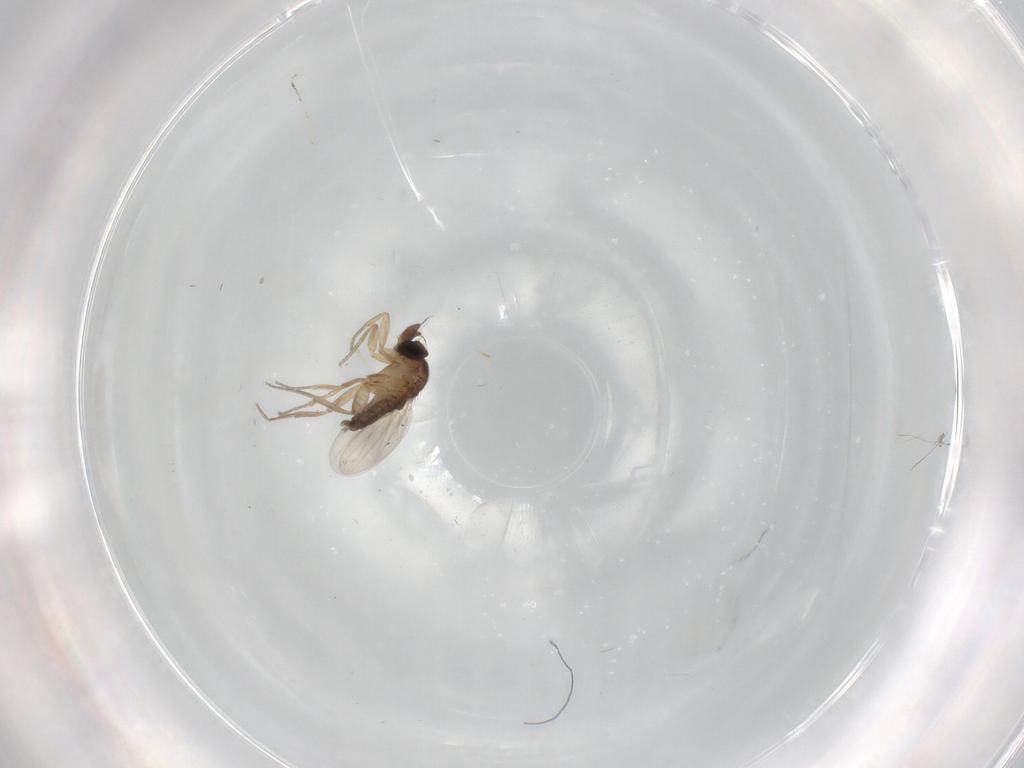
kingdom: Animalia
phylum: Arthropoda
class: Insecta
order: Diptera
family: Phoridae
